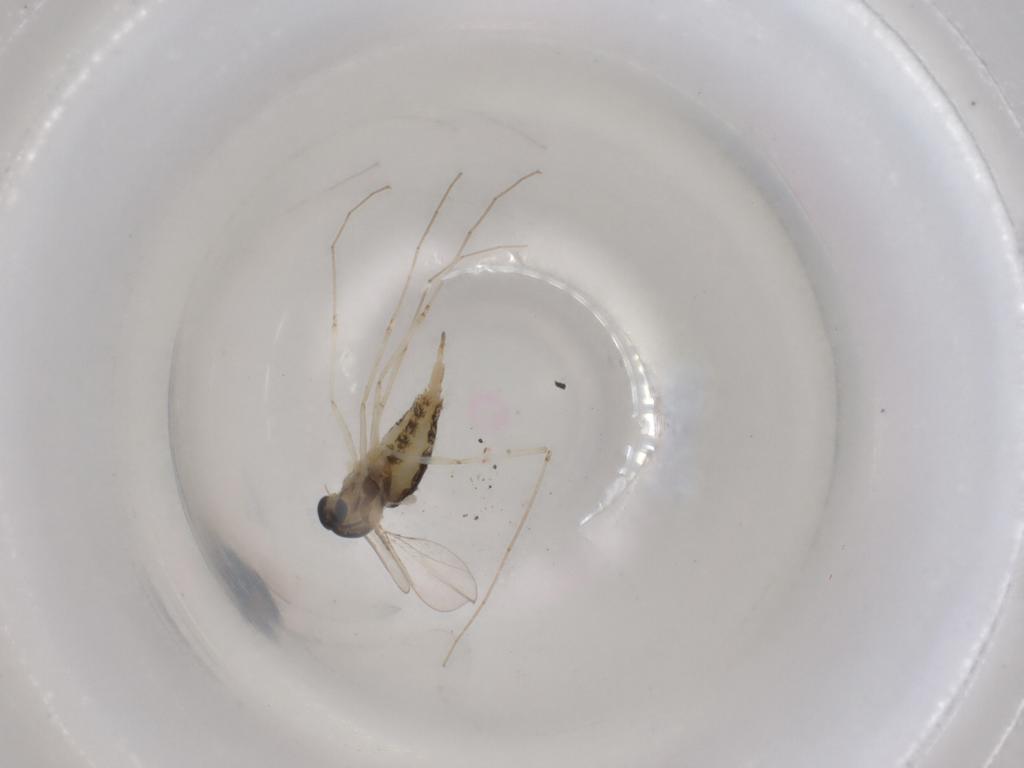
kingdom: Animalia
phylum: Arthropoda
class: Insecta
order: Diptera
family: Cecidomyiidae
